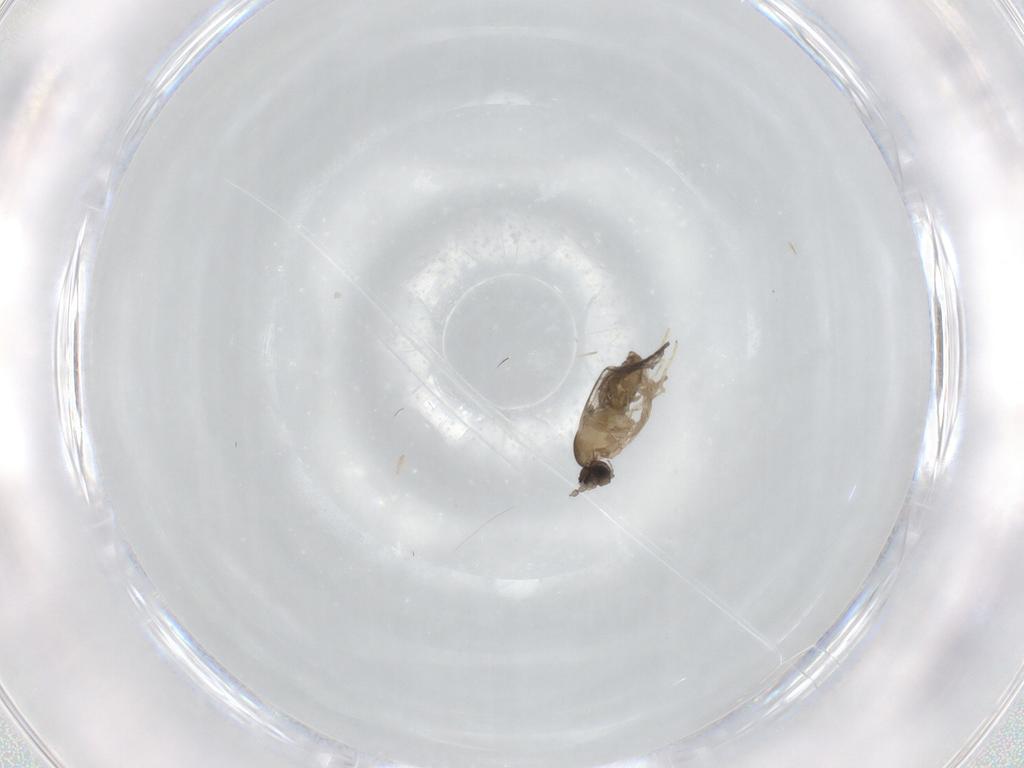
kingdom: Animalia
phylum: Arthropoda
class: Insecta
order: Diptera
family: Cecidomyiidae
